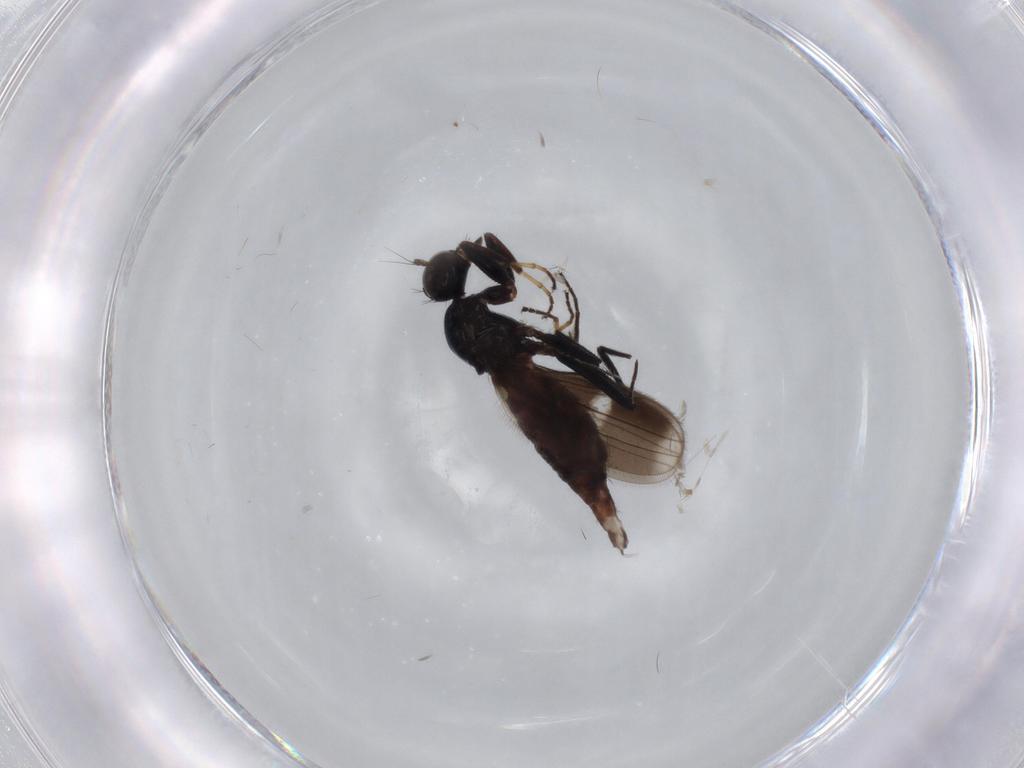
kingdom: Animalia
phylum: Arthropoda
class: Insecta
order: Diptera
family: Hybotidae
